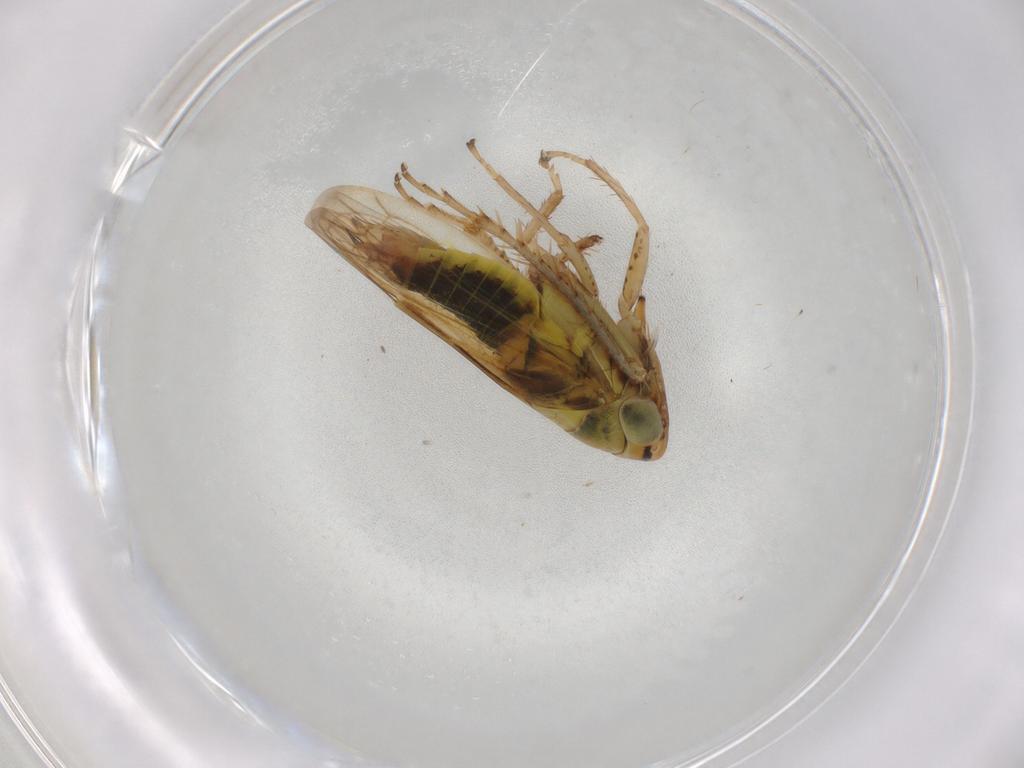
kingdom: Animalia
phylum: Arthropoda
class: Insecta
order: Hemiptera
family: Cicadellidae
